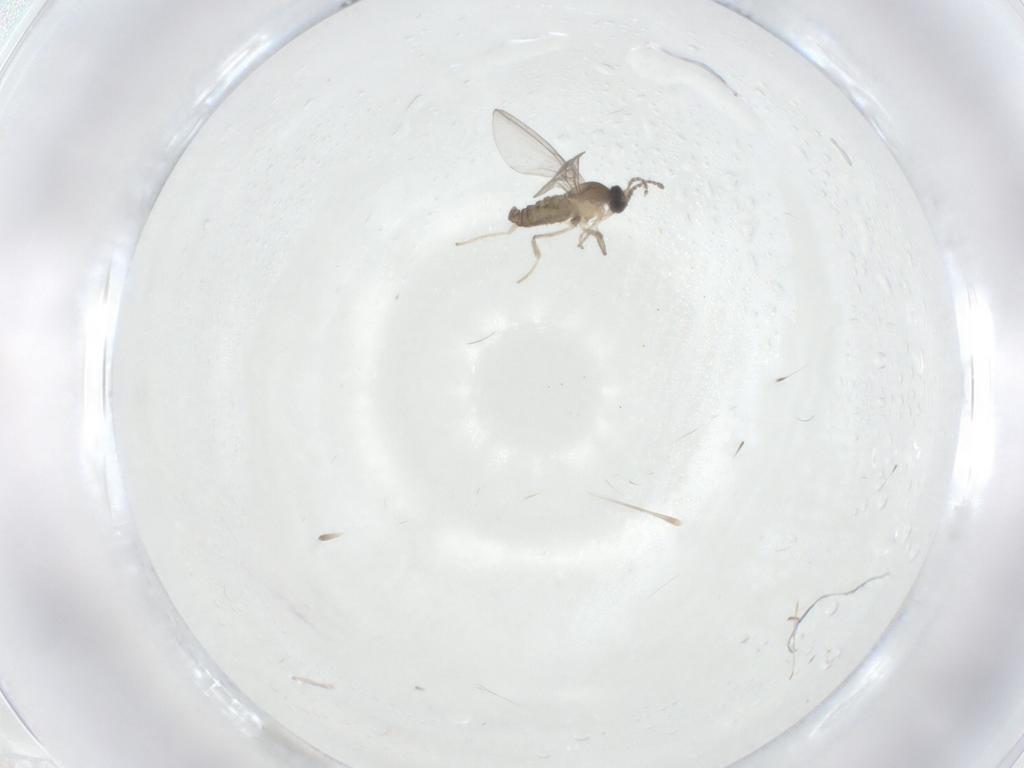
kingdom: Animalia
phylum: Arthropoda
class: Insecta
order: Diptera
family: Cecidomyiidae
